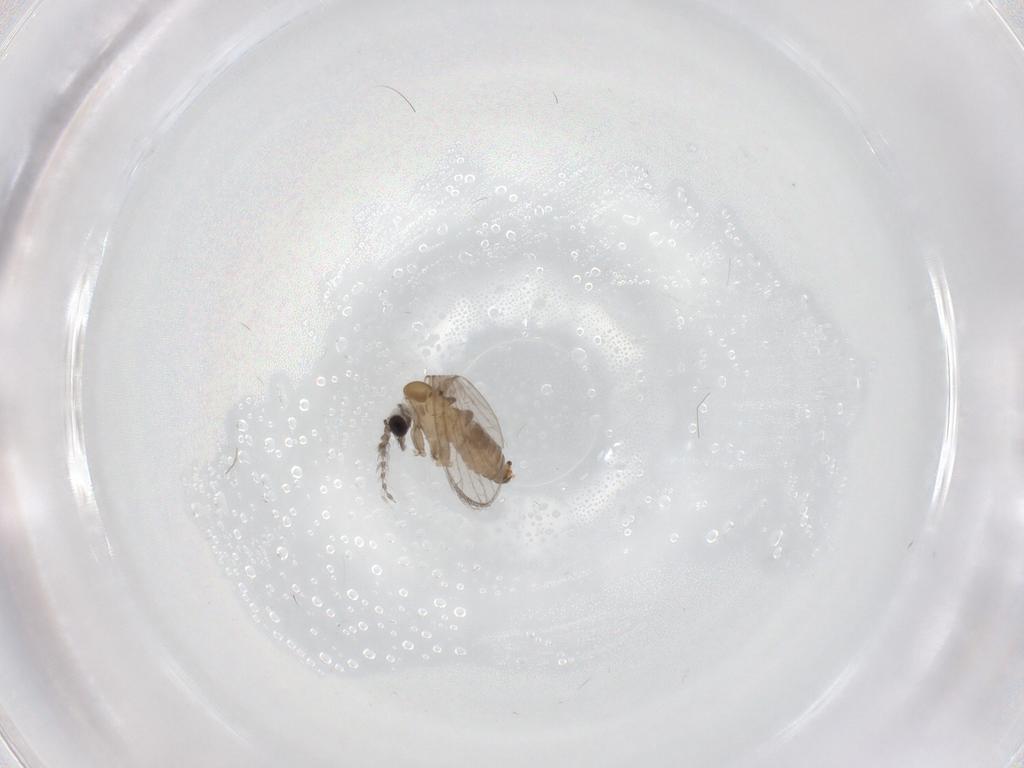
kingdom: Animalia
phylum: Arthropoda
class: Insecta
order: Diptera
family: Psychodidae
